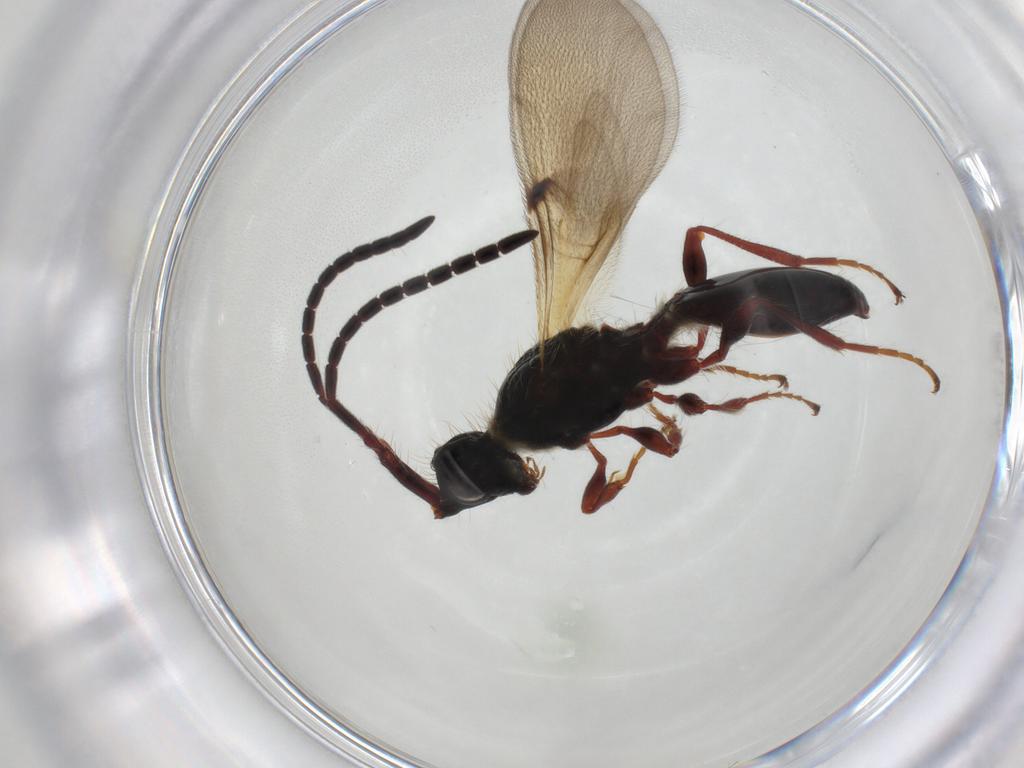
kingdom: Animalia
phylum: Arthropoda
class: Insecta
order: Hymenoptera
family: Diapriidae
